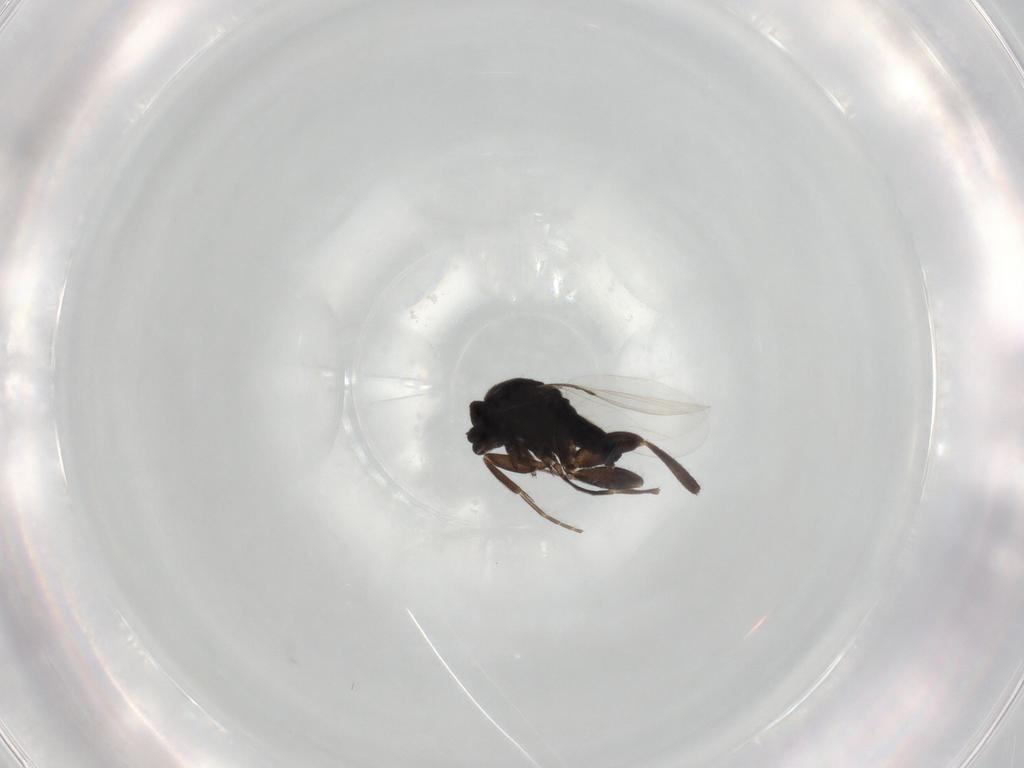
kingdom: Animalia
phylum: Arthropoda
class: Insecta
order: Diptera
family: Phoridae
